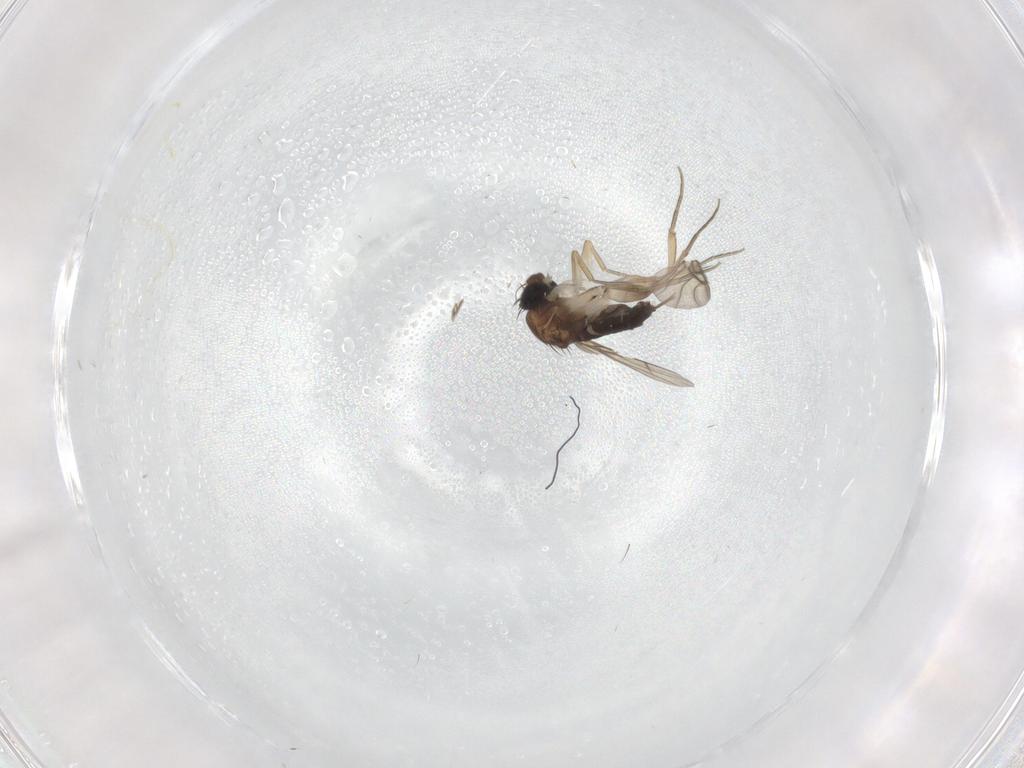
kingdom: Animalia
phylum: Arthropoda
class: Insecta
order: Diptera
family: Phoridae
